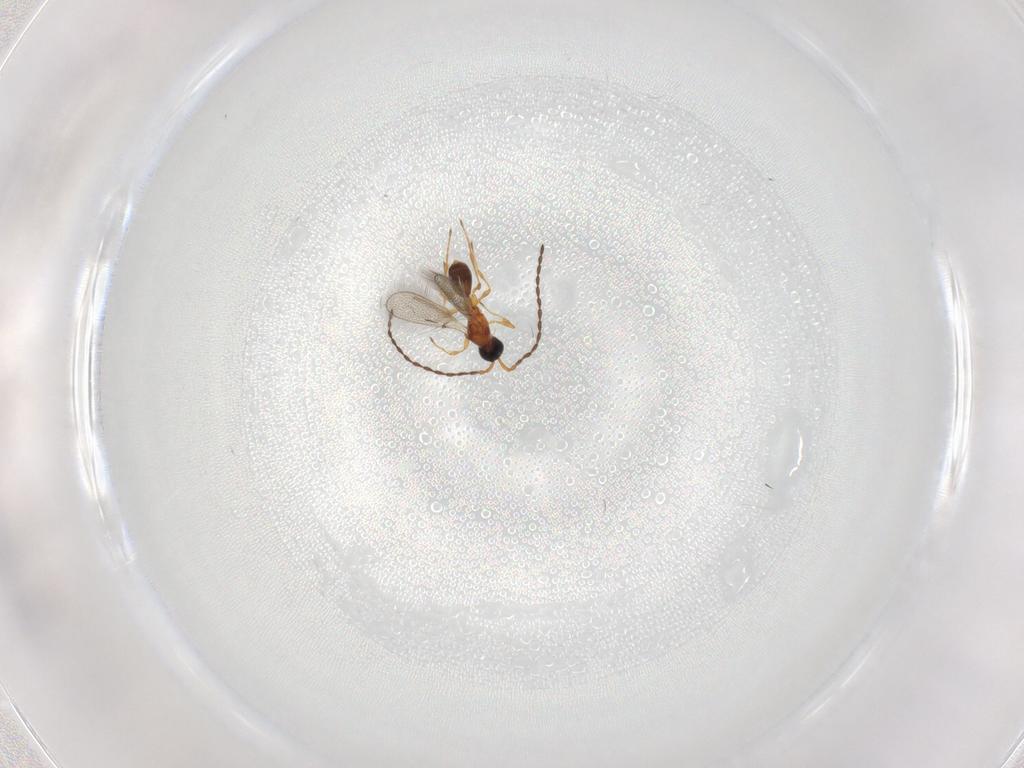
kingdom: Animalia
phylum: Arthropoda
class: Insecta
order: Hymenoptera
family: Diapriidae
